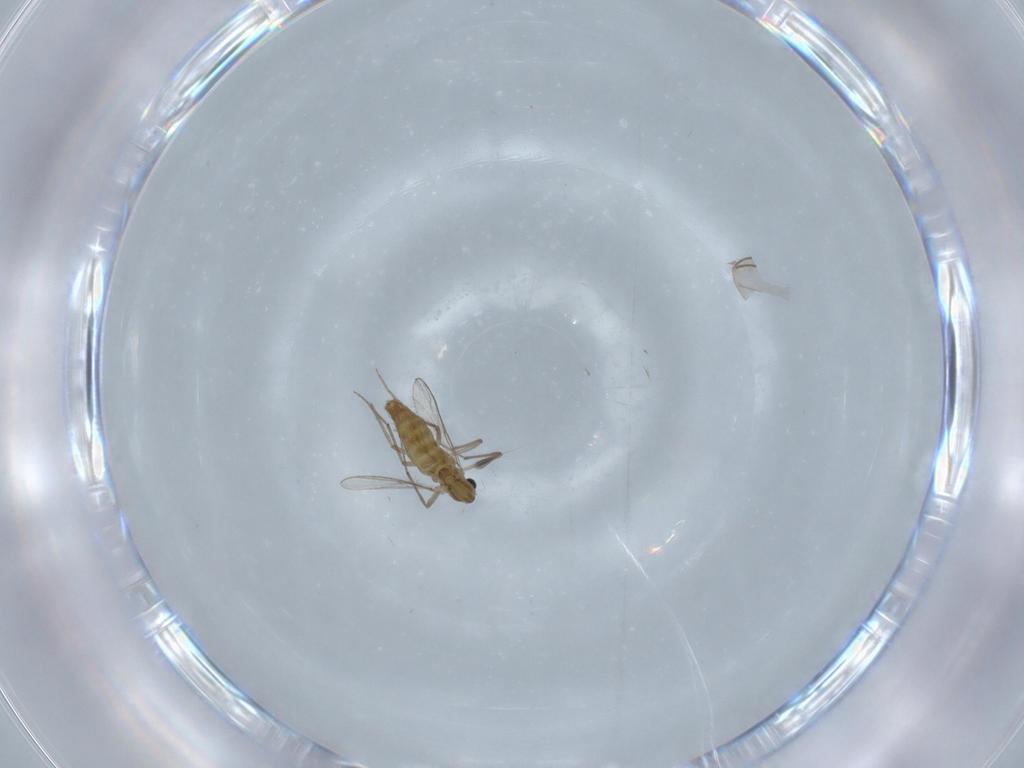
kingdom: Animalia
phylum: Arthropoda
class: Insecta
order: Diptera
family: Chironomidae
